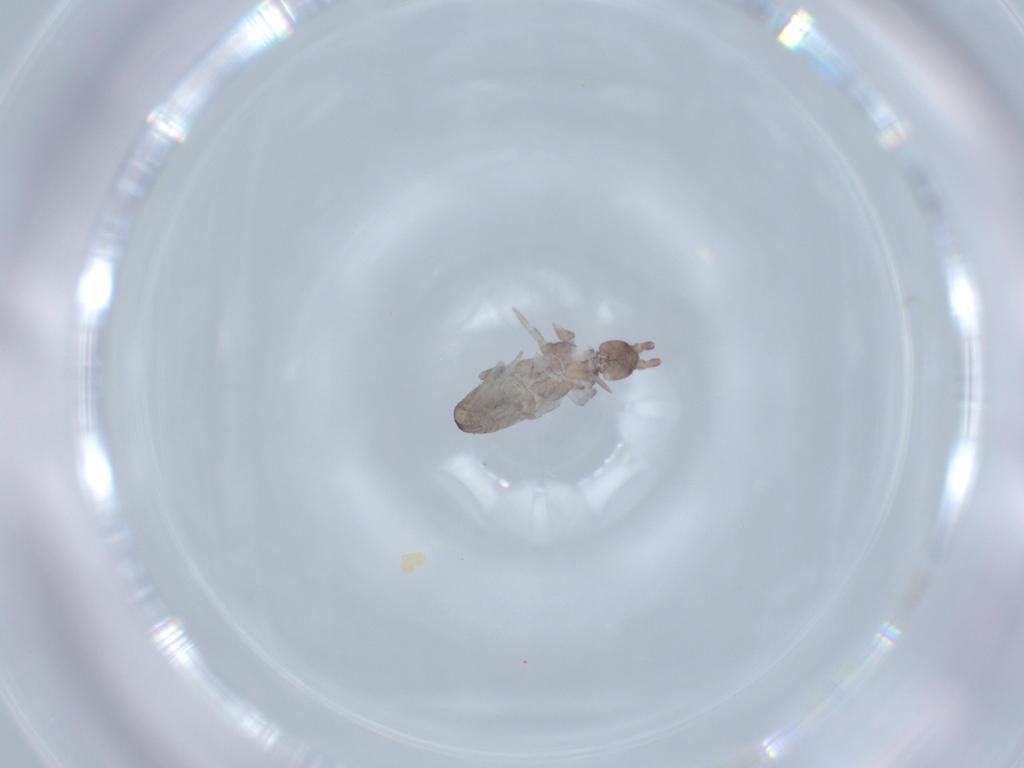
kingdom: Animalia
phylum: Arthropoda
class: Collembola
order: Entomobryomorpha
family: Tomoceridae
